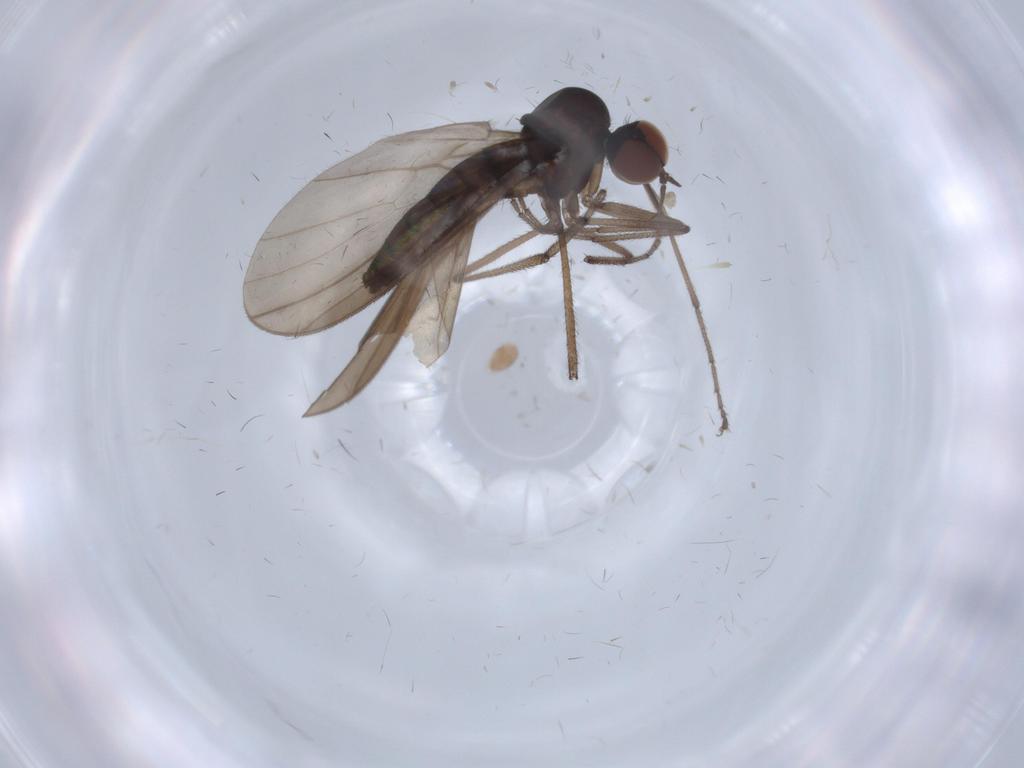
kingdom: Animalia
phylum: Arthropoda
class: Insecta
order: Diptera
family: Empididae
